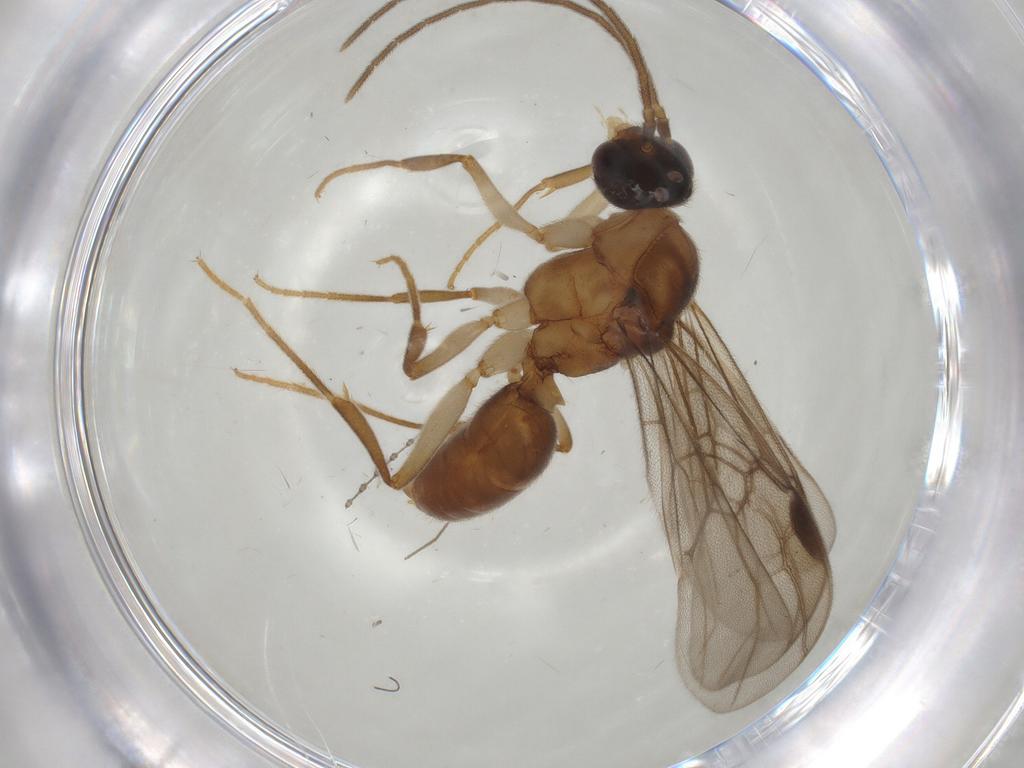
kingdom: Animalia
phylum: Arthropoda
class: Insecta
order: Hymenoptera
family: Formicidae
